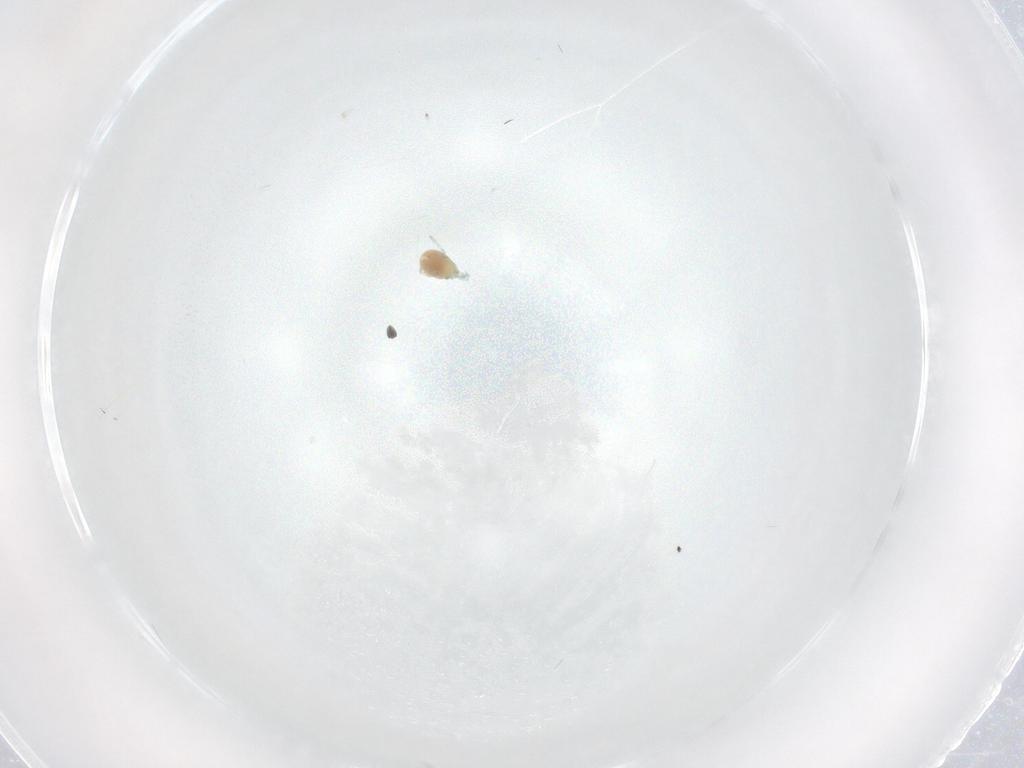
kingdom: Animalia
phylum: Arthropoda
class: Arachnida
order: Trombidiformes
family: Limnesiidae
